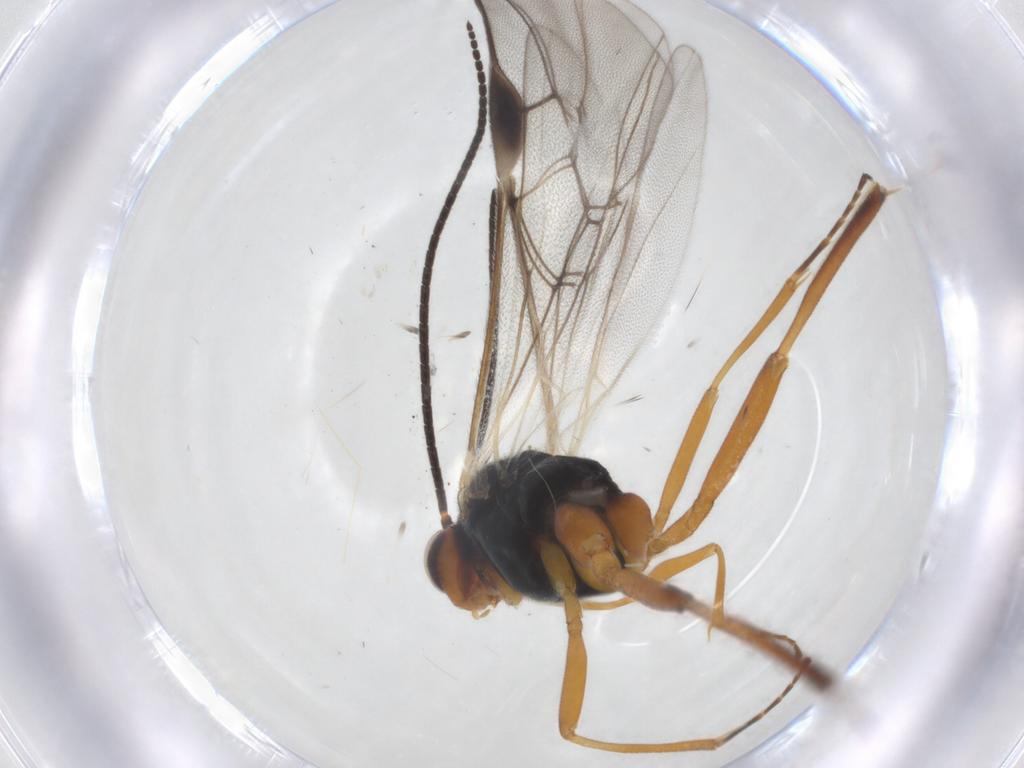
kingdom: Animalia
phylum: Arthropoda
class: Insecta
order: Hymenoptera
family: Braconidae
